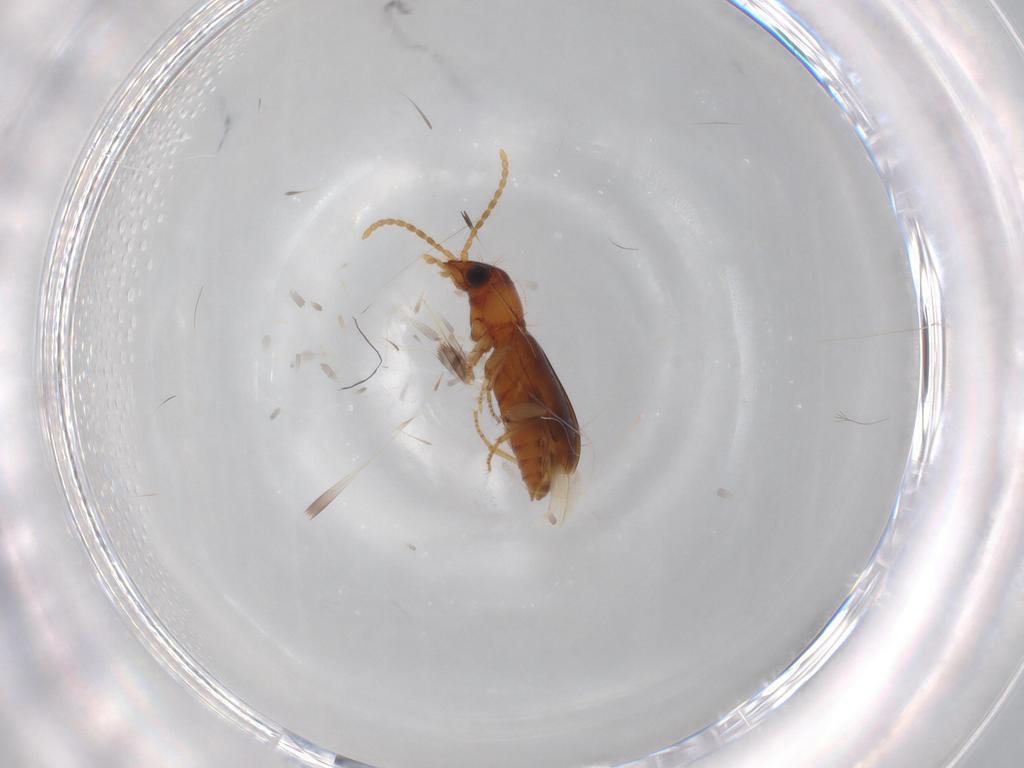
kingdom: Animalia
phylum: Arthropoda
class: Insecta
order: Coleoptera
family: Carabidae
